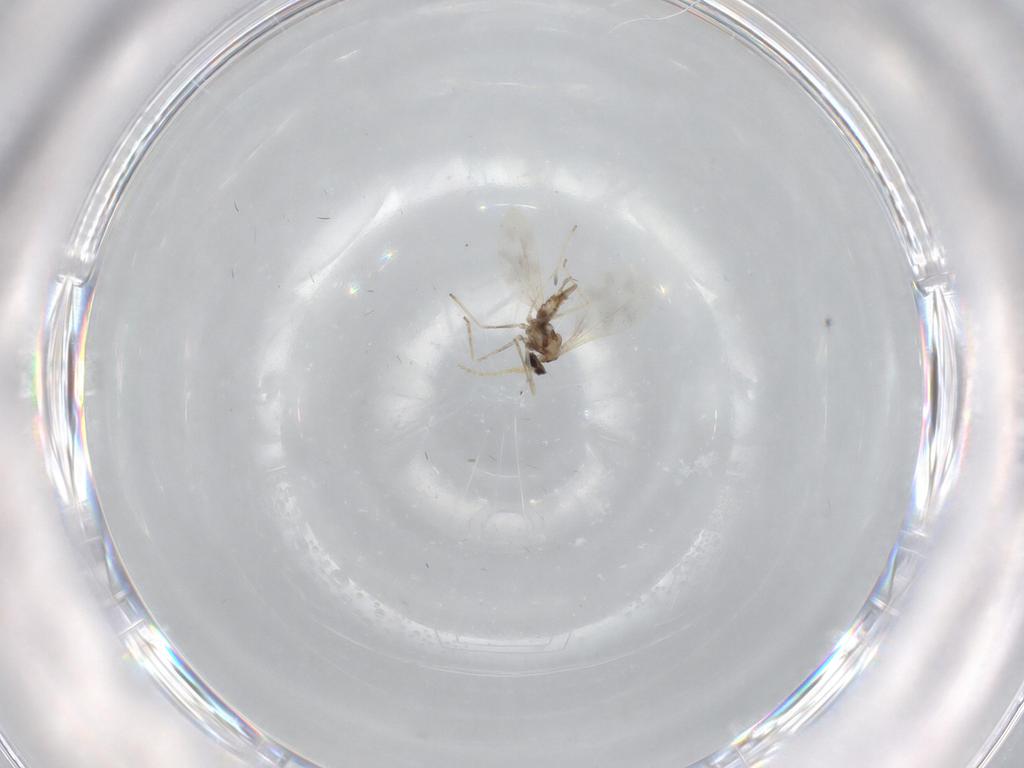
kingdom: Animalia
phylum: Arthropoda
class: Insecta
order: Diptera
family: Cecidomyiidae
